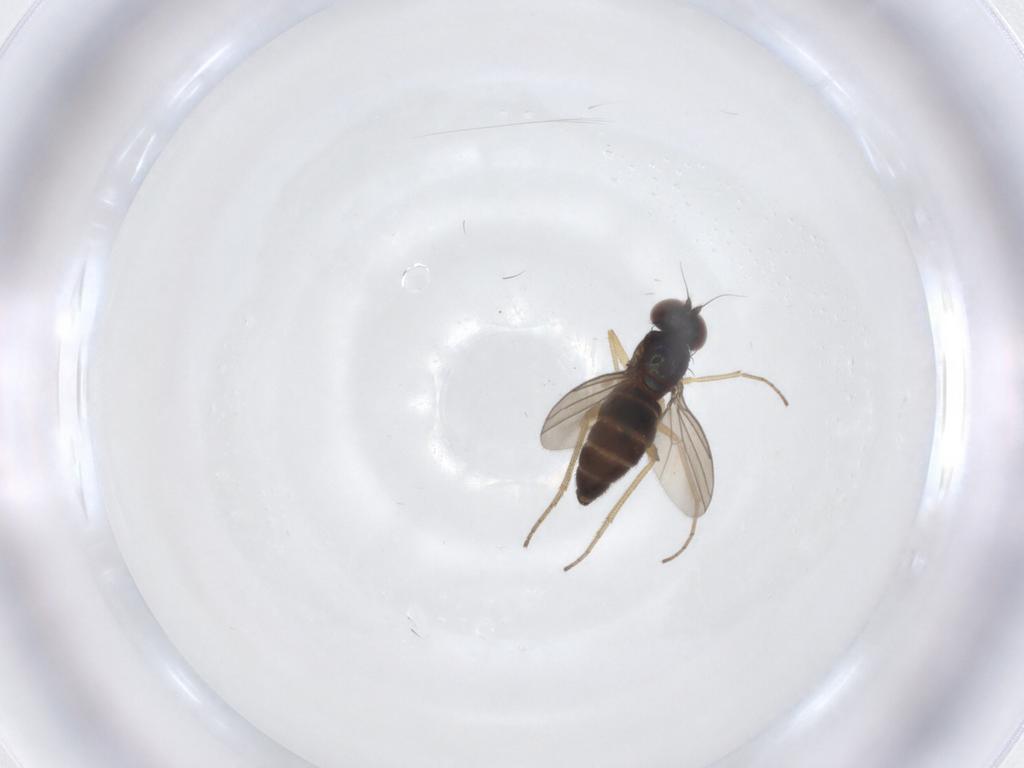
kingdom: Animalia
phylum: Arthropoda
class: Insecta
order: Diptera
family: Dolichopodidae
